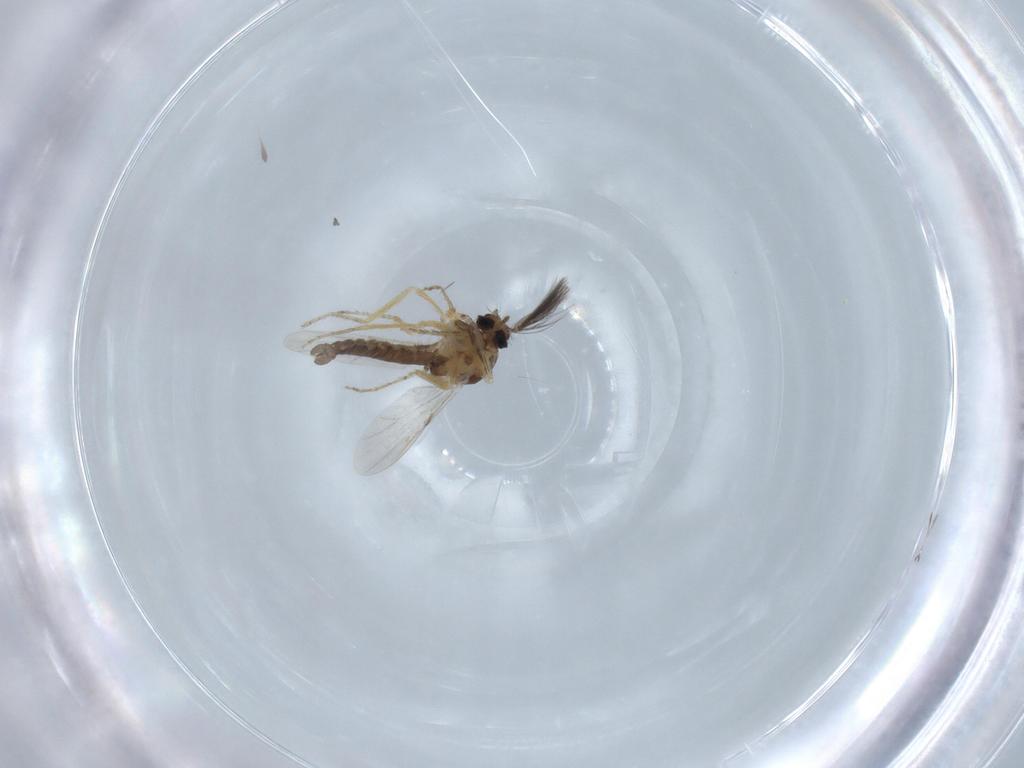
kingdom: Animalia
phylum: Arthropoda
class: Insecta
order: Diptera
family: Ceratopogonidae
